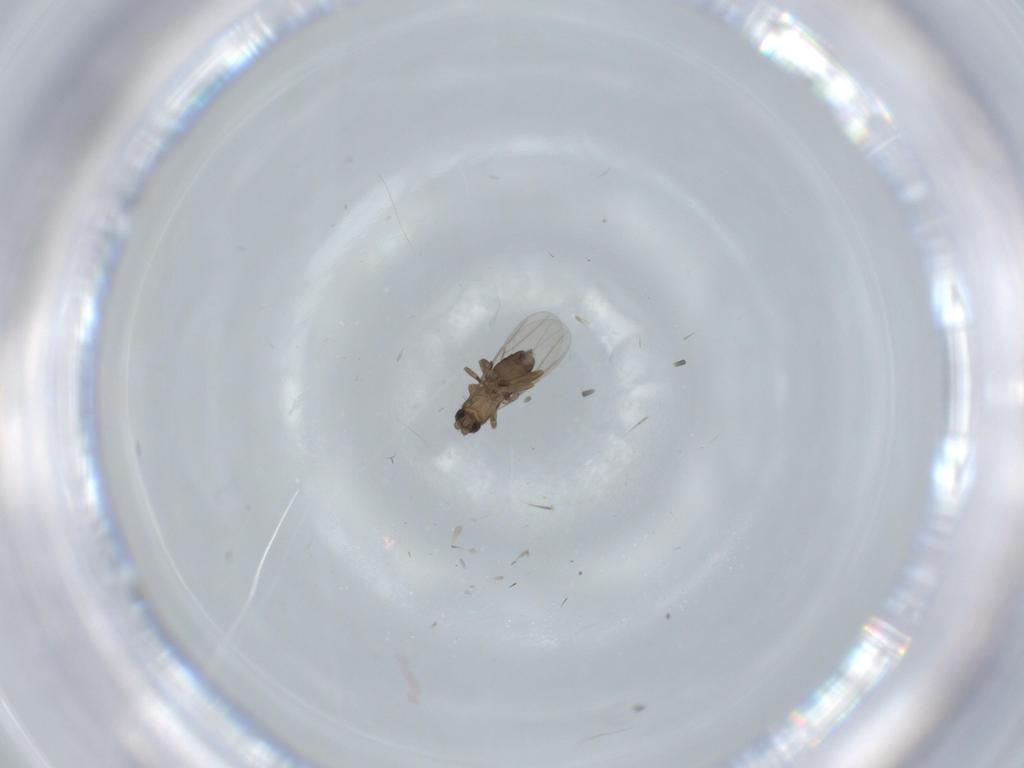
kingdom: Animalia
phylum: Arthropoda
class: Insecta
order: Diptera
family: Phoridae
